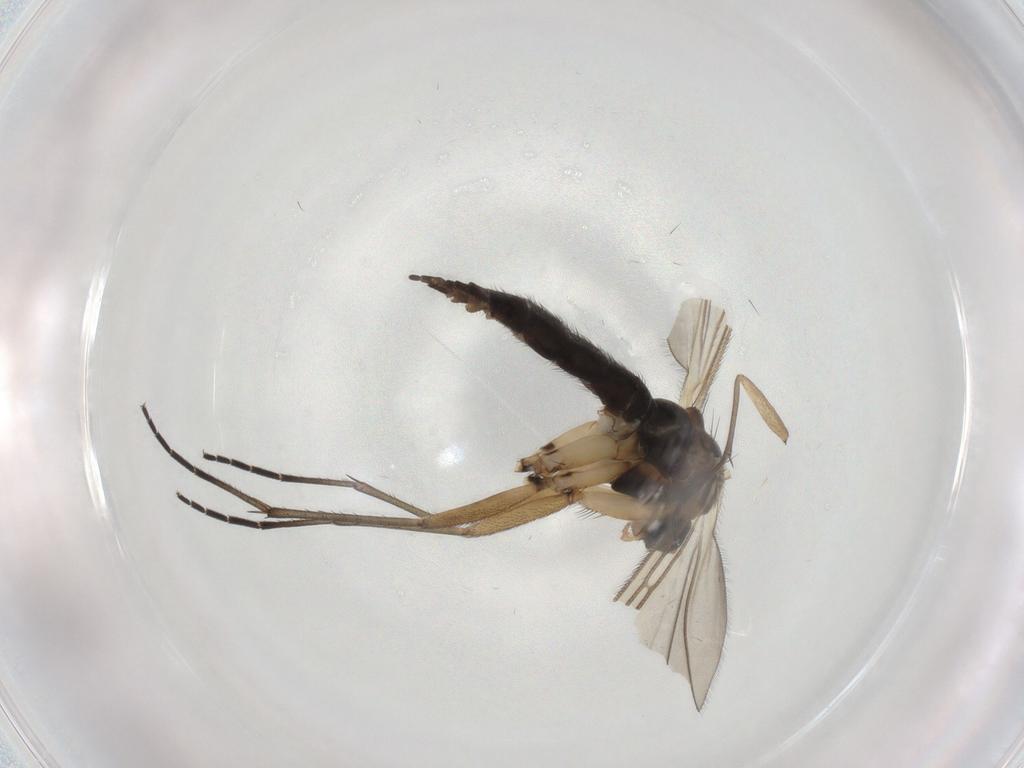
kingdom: Animalia
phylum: Arthropoda
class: Insecta
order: Diptera
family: Sciaridae
